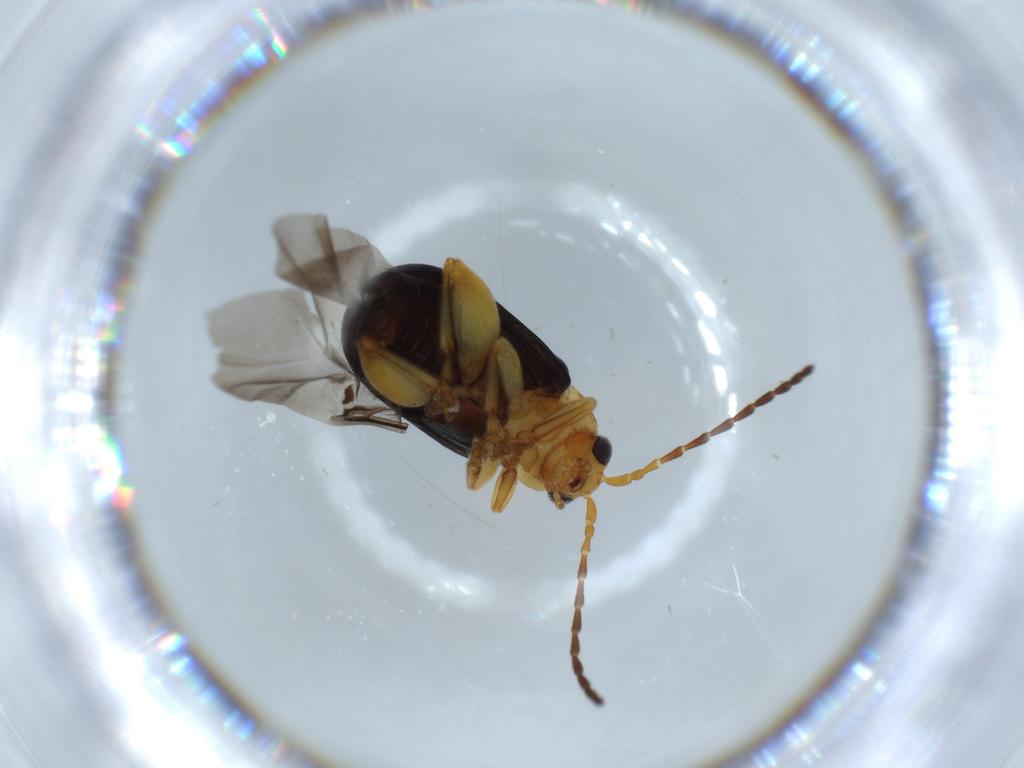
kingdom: Animalia
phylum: Arthropoda
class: Insecta
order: Coleoptera
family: Chrysomelidae
